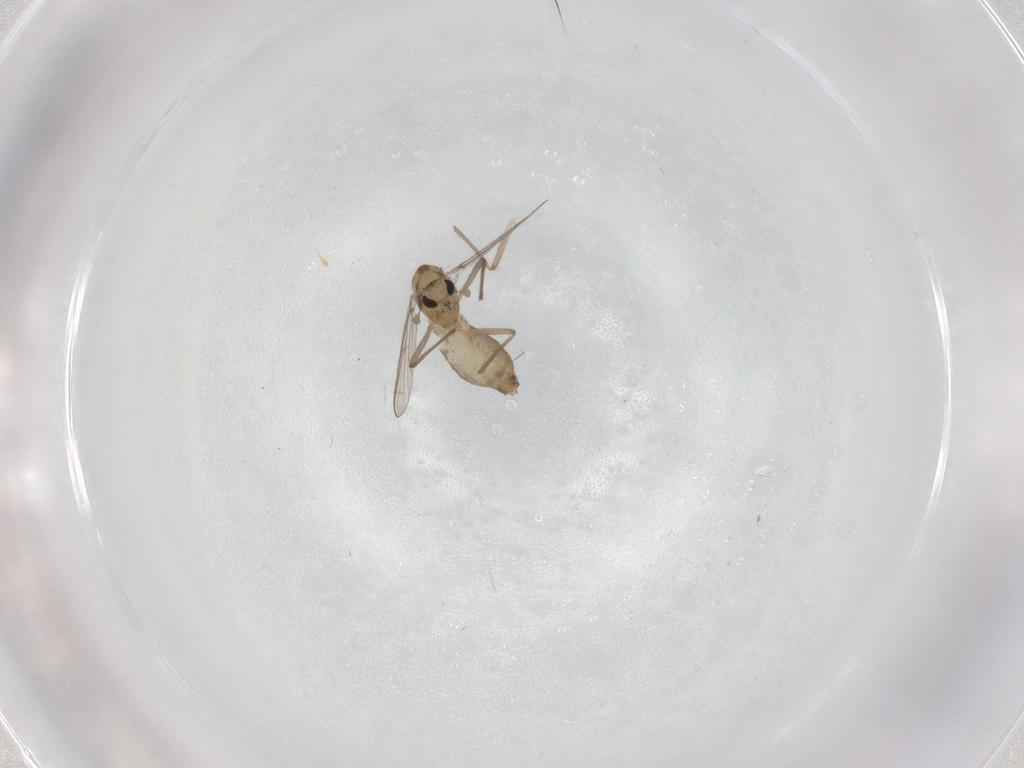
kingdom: Animalia
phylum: Arthropoda
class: Insecta
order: Diptera
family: Chironomidae
